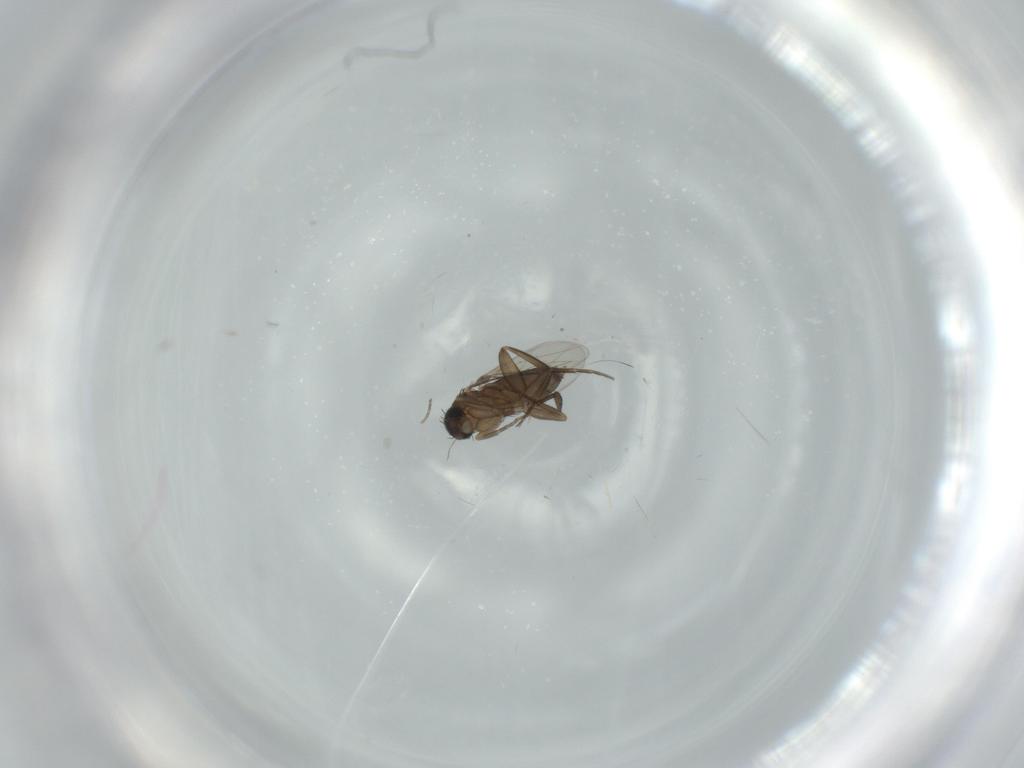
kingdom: Animalia
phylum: Arthropoda
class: Insecta
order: Diptera
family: Phoridae
